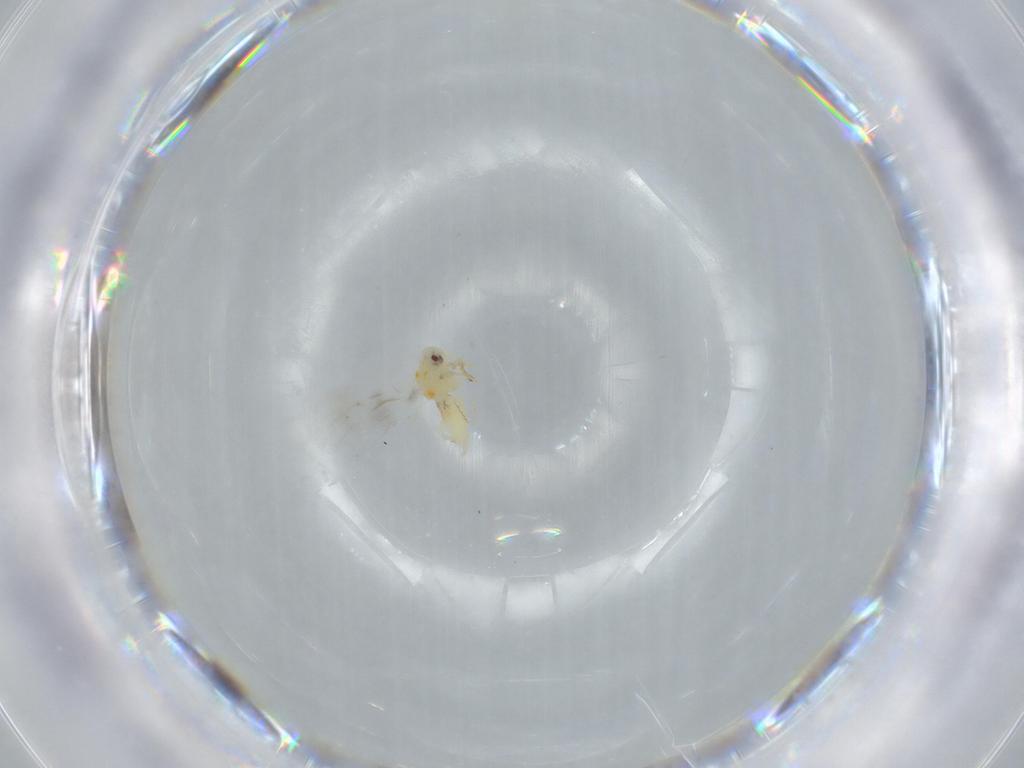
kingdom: Animalia
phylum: Arthropoda
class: Insecta
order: Hemiptera
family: Aleyrodidae
